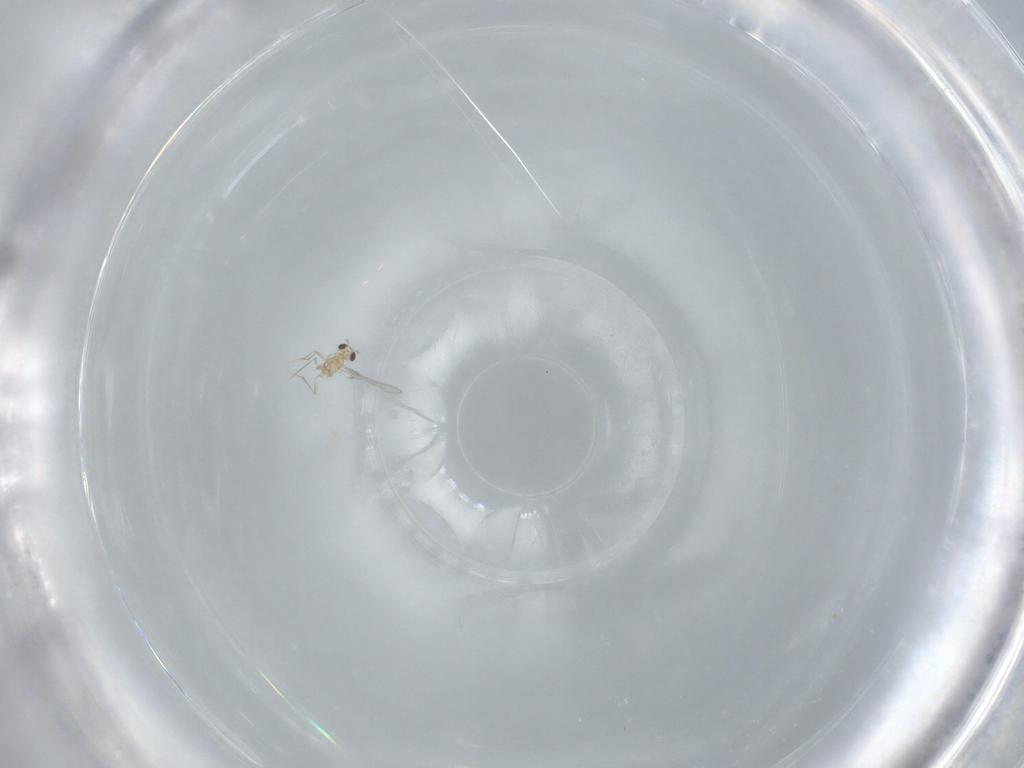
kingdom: Animalia
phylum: Arthropoda
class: Insecta
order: Hymenoptera
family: Mymaridae
